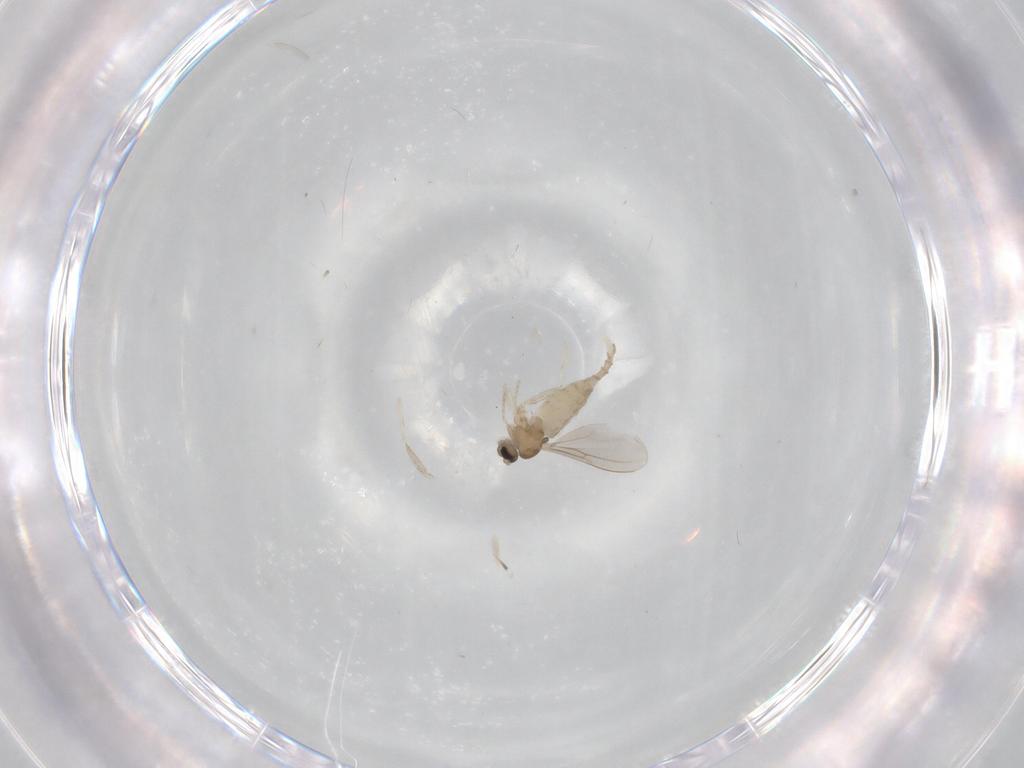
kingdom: Animalia
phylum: Arthropoda
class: Insecta
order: Diptera
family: Cecidomyiidae
